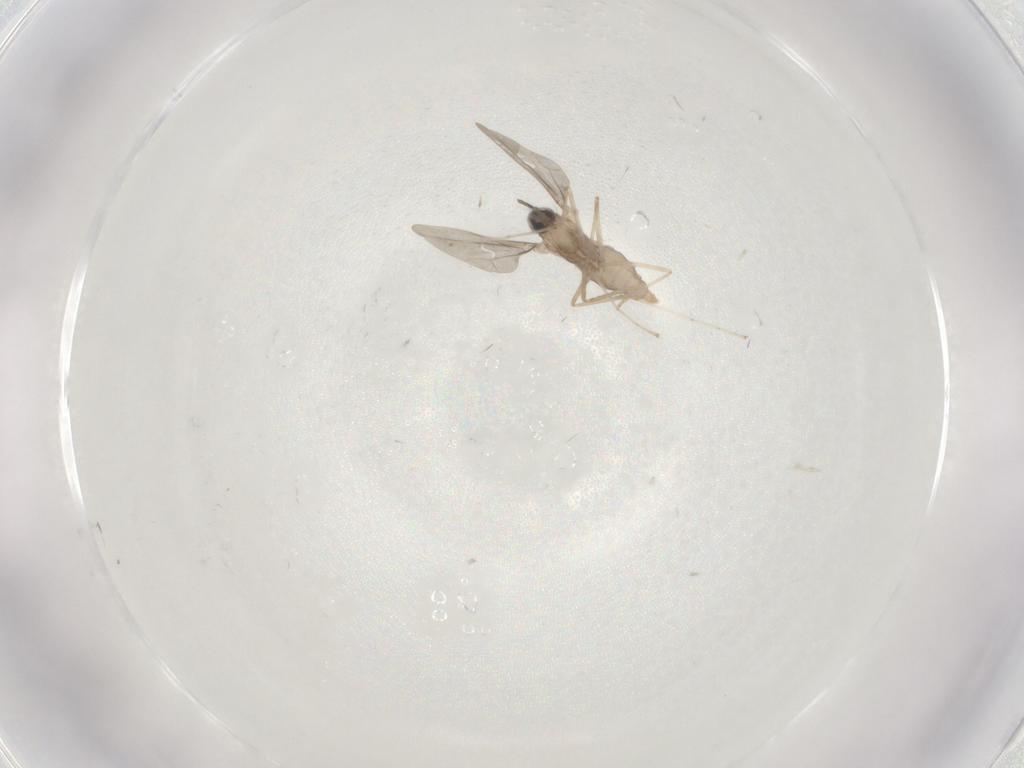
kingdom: Animalia
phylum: Arthropoda
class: Insecta
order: Diptera
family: Cecidomyiidae
